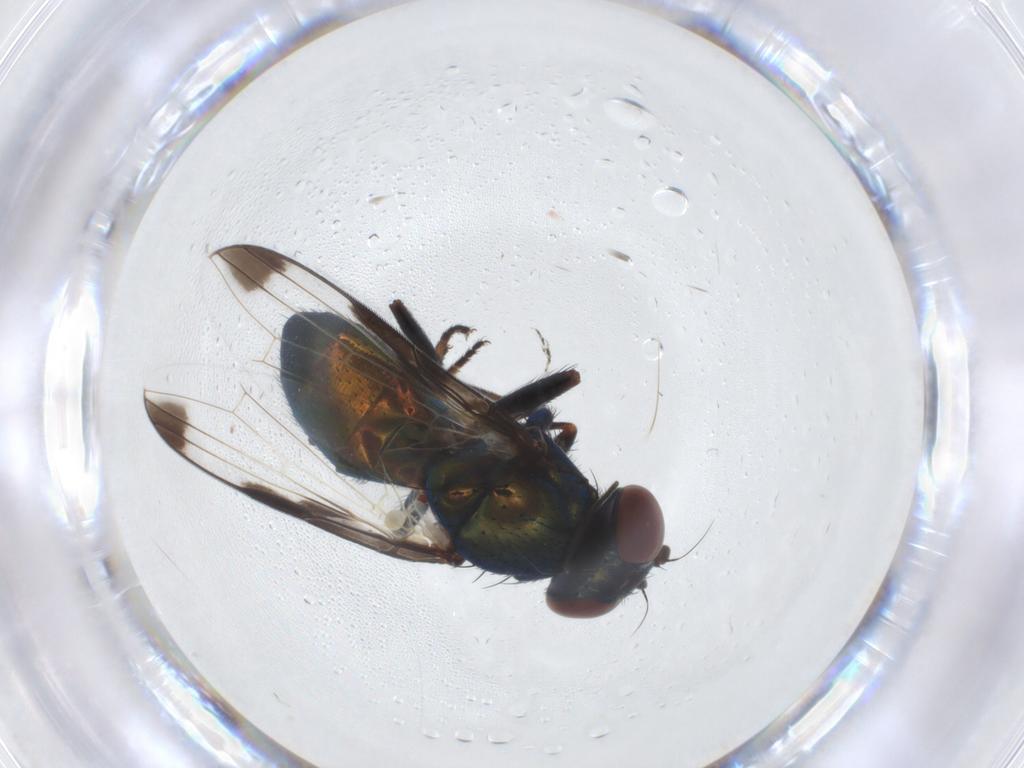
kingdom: Animalia
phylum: Arthropoda
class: Insecta
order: Diptera
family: Ulidiidae
